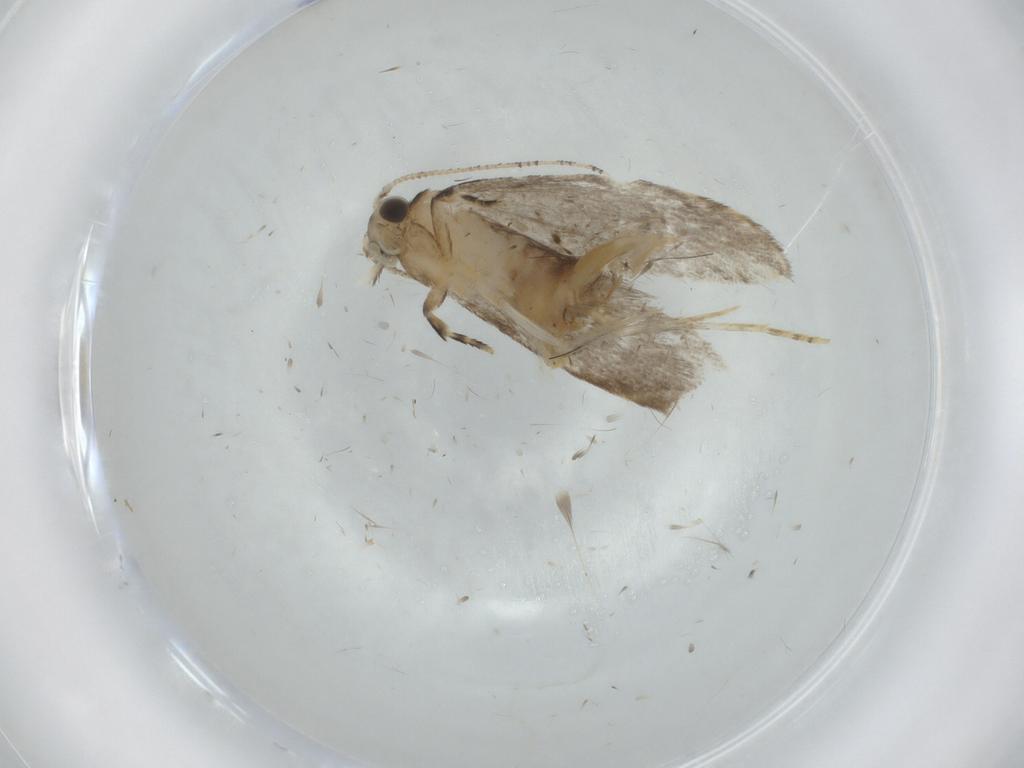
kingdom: Animalia
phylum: Arthropoda
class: Insecta
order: Lepidoptera
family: Tineidae
